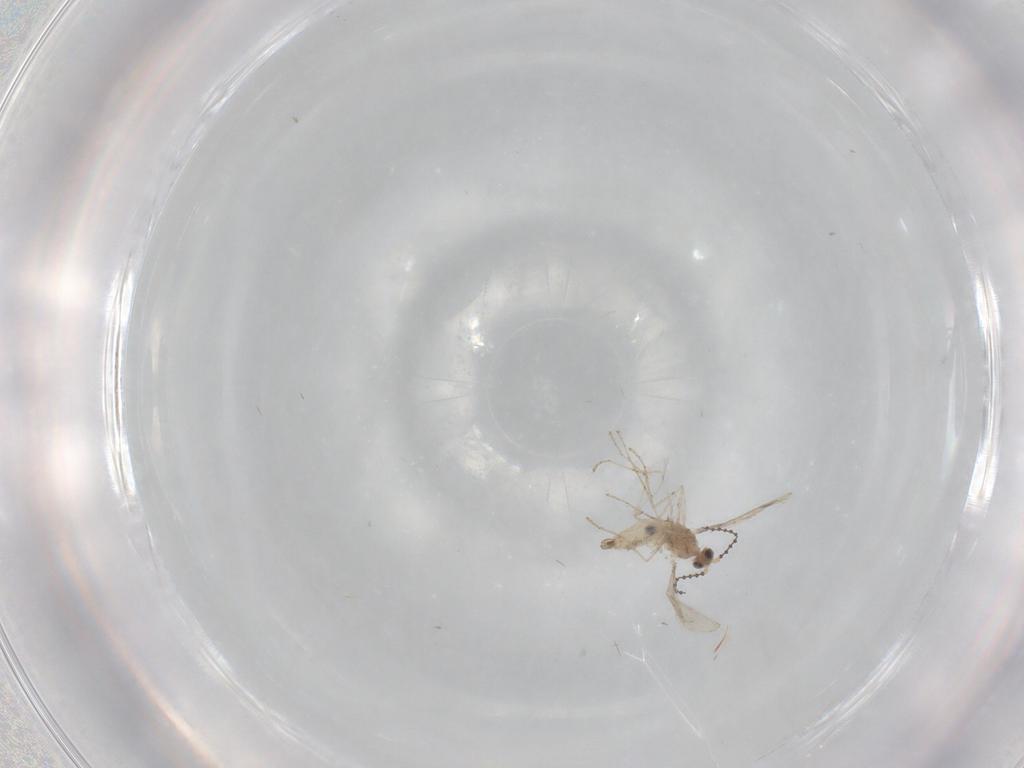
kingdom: Animalia
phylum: Arthropoda
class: Insecta
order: Diptera
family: Cecidomyiidae
